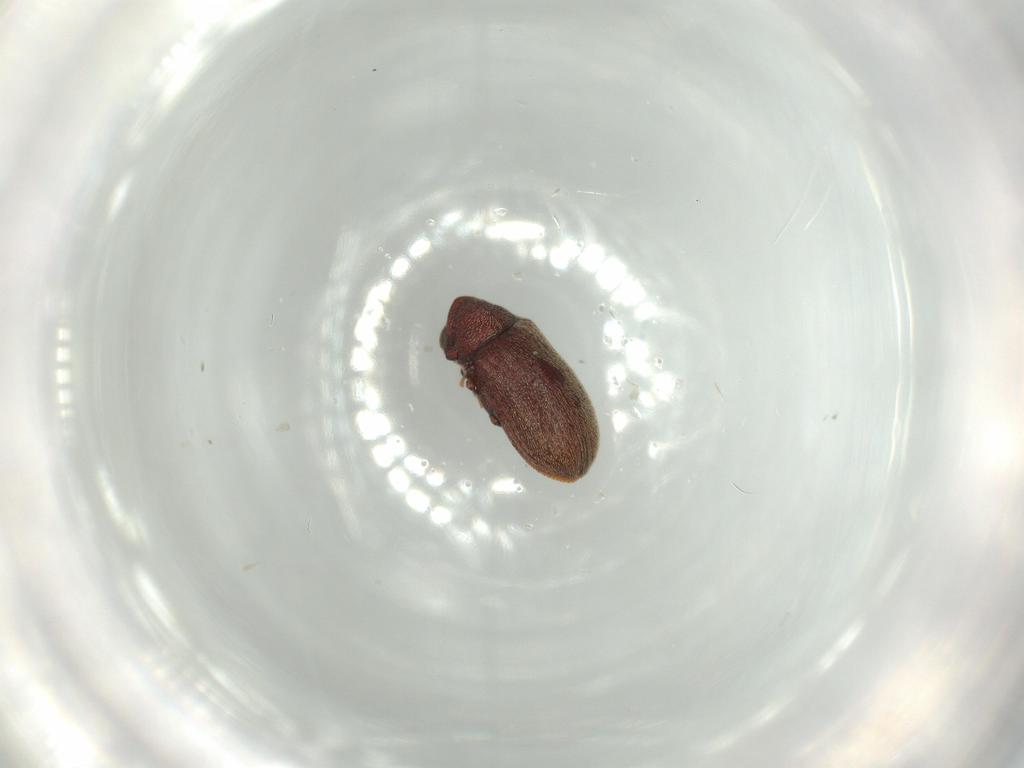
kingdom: Animalia
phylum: Arthropoda
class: Insecta
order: Coleoptera
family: Anobiidae
